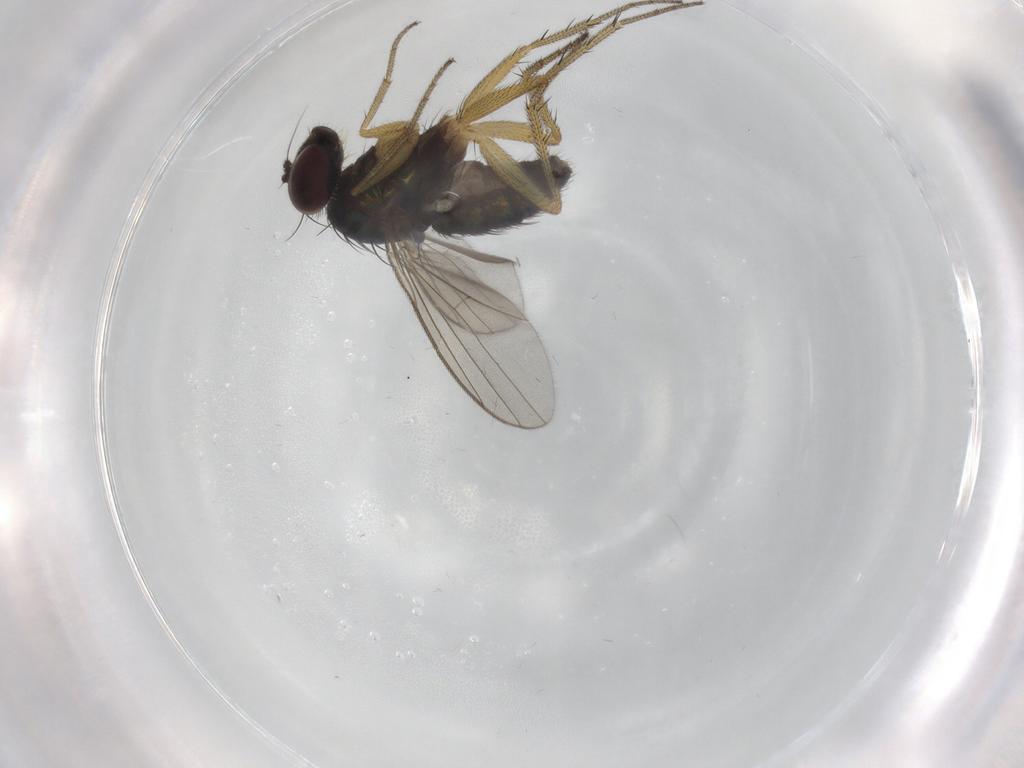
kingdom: Animalia
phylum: Arthropoda
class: Insecta
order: Diptera
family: Dolichopodidae
